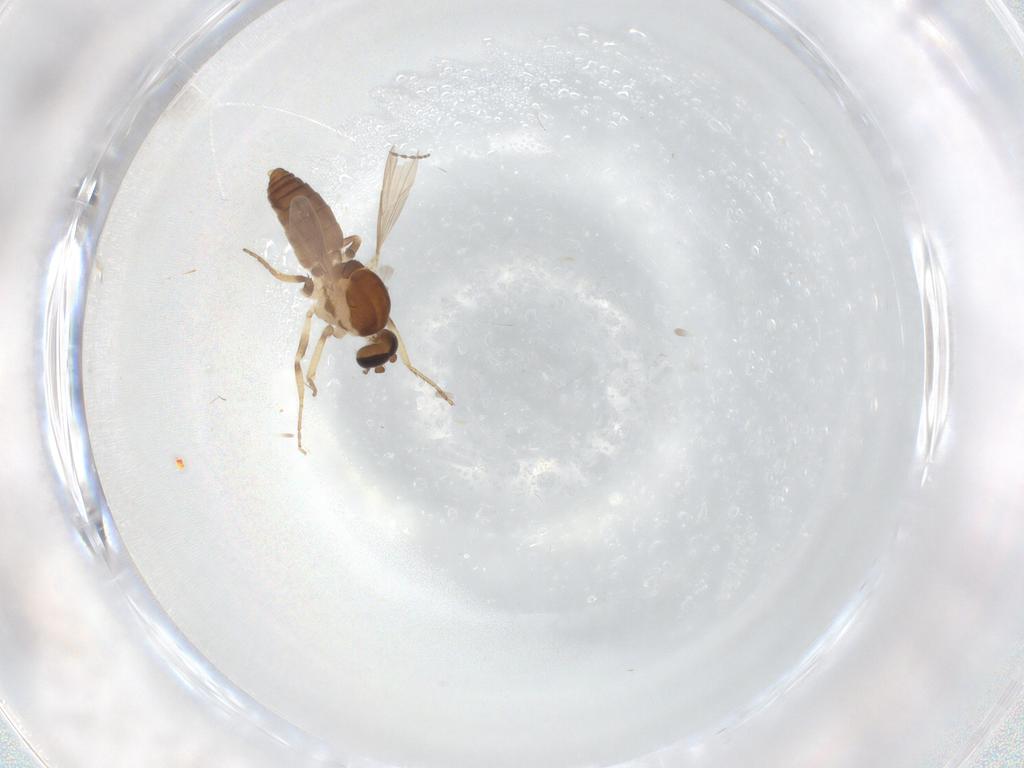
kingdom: Animalia
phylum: Arthropoda
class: Insecta
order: Diptera
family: Ceratopogonidae
